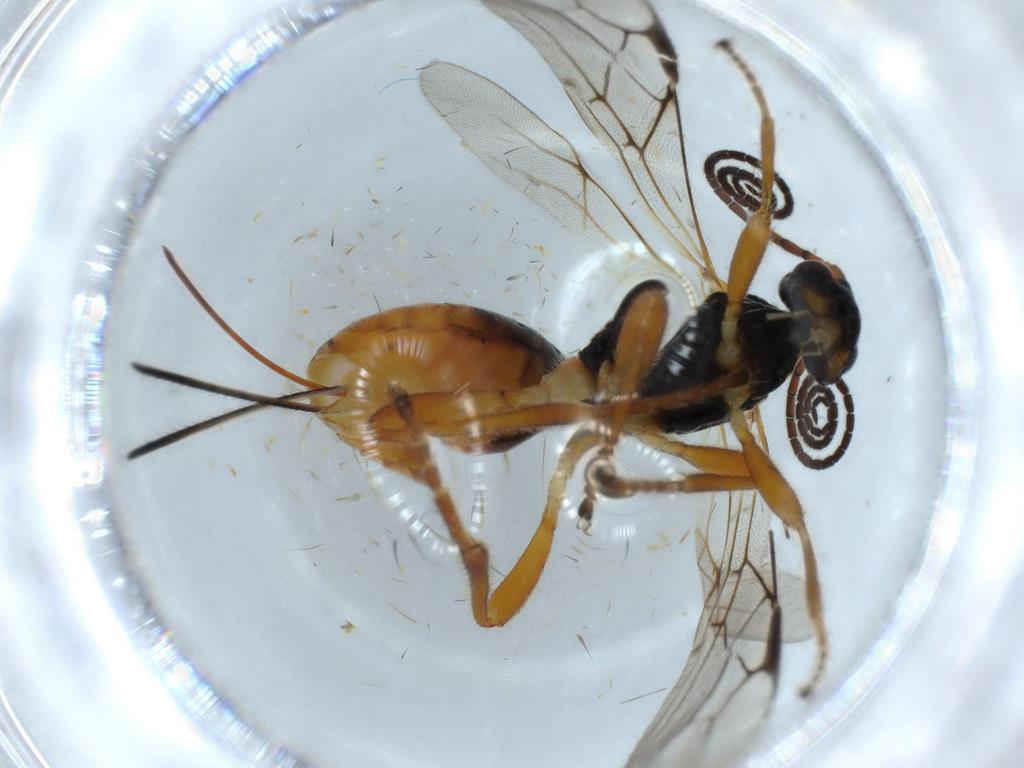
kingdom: Animalia
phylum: Arthropoda
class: Insecta
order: Hymenoptera
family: Braconidae
